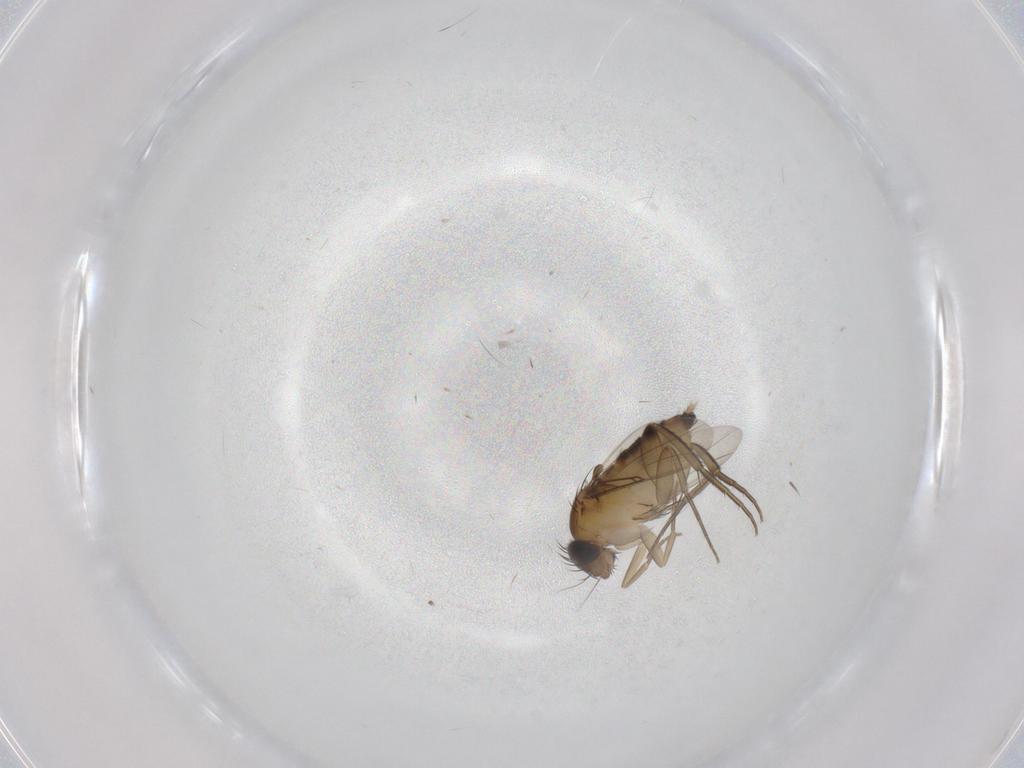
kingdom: Animalia
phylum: Arthropoda
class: Insecta
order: Diptera
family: Phoridae
